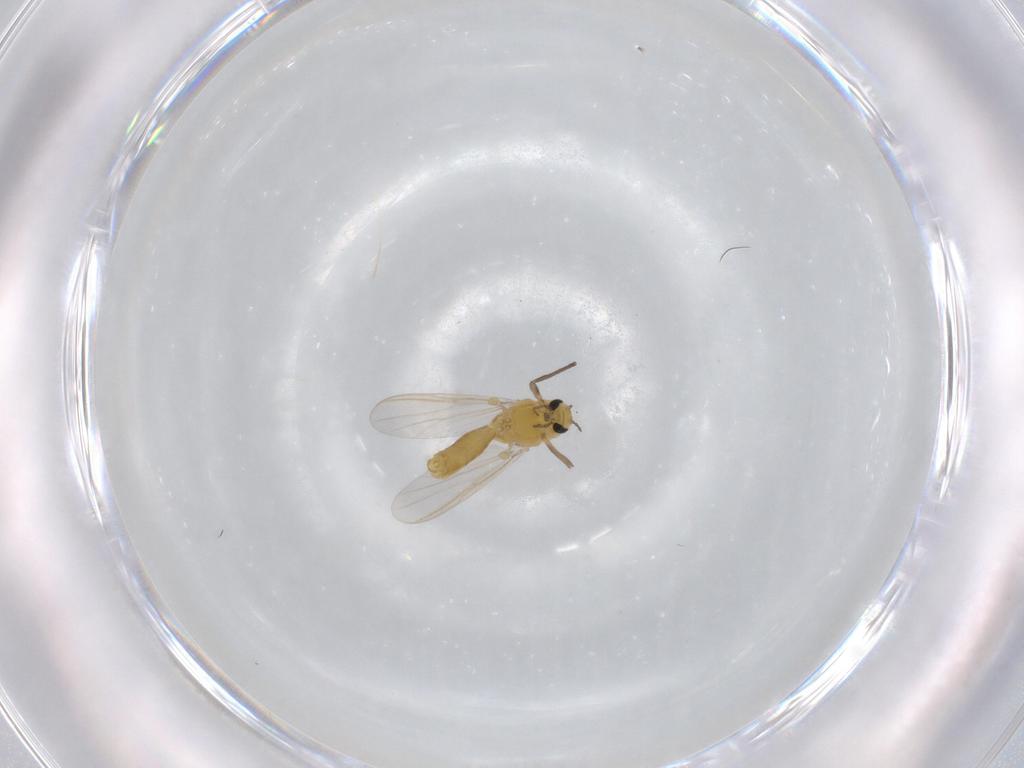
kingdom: Animalia
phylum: Arthropoda
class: Insecta
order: Diptera
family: Chironomidae
